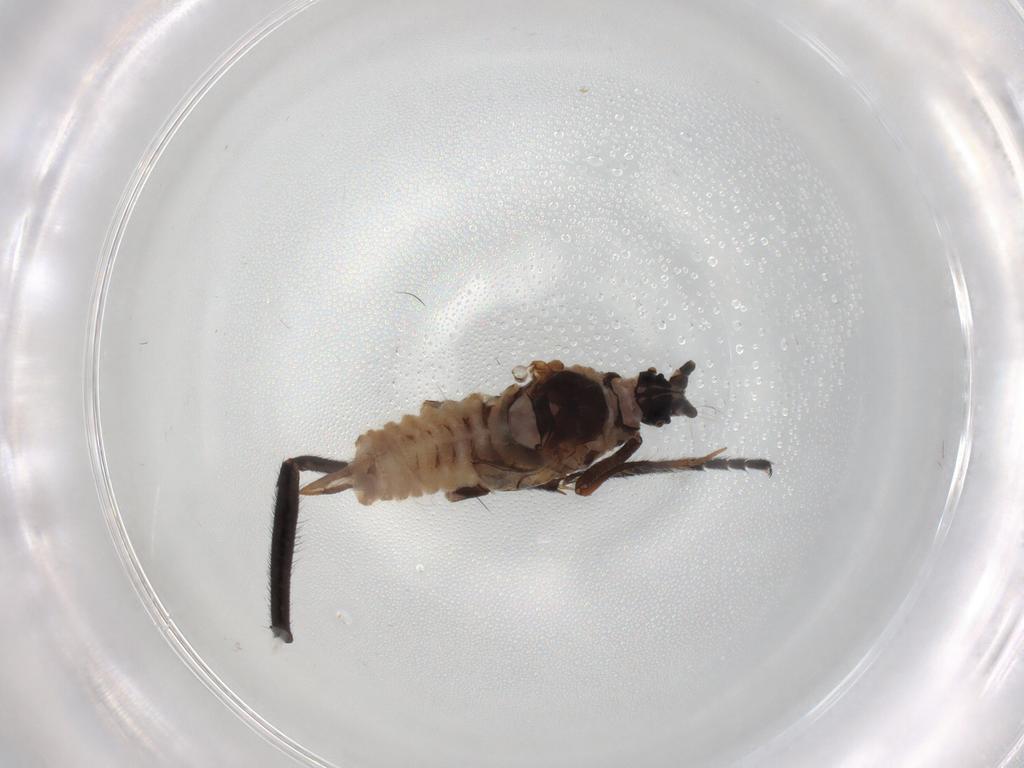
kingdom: Animalia
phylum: Arthropoda
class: Insecta
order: Hemiptera
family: Putoidae
